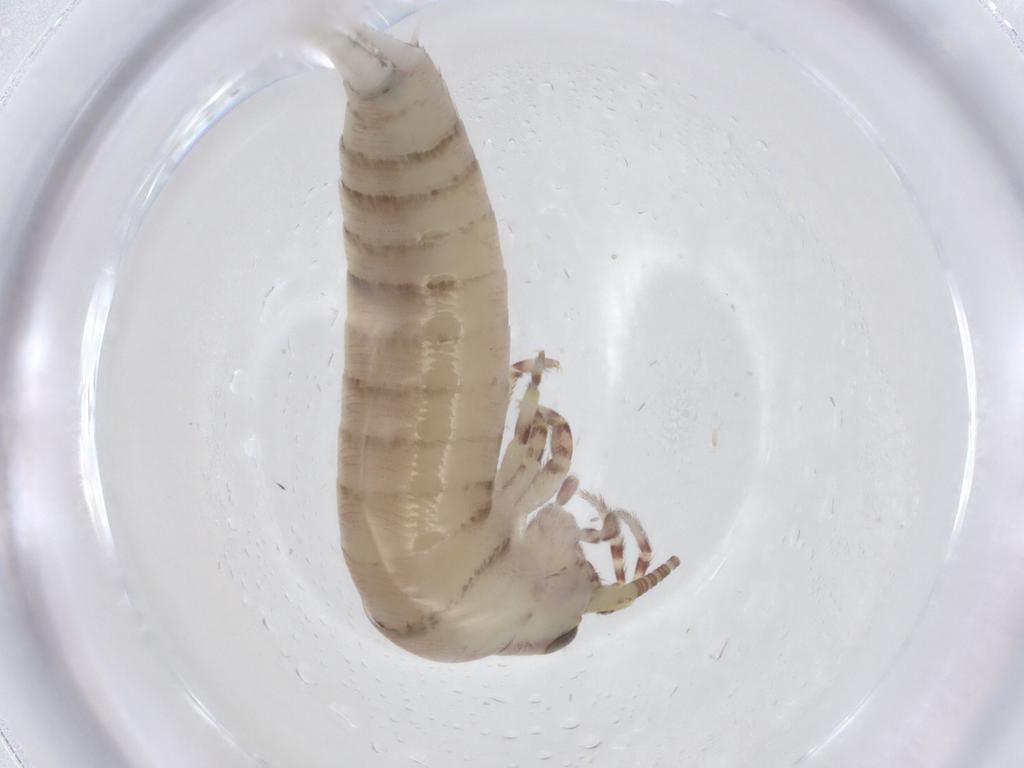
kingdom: Animalia
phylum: Arthropoda
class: Insecta
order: Archaeognatha
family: Meinertellidae
